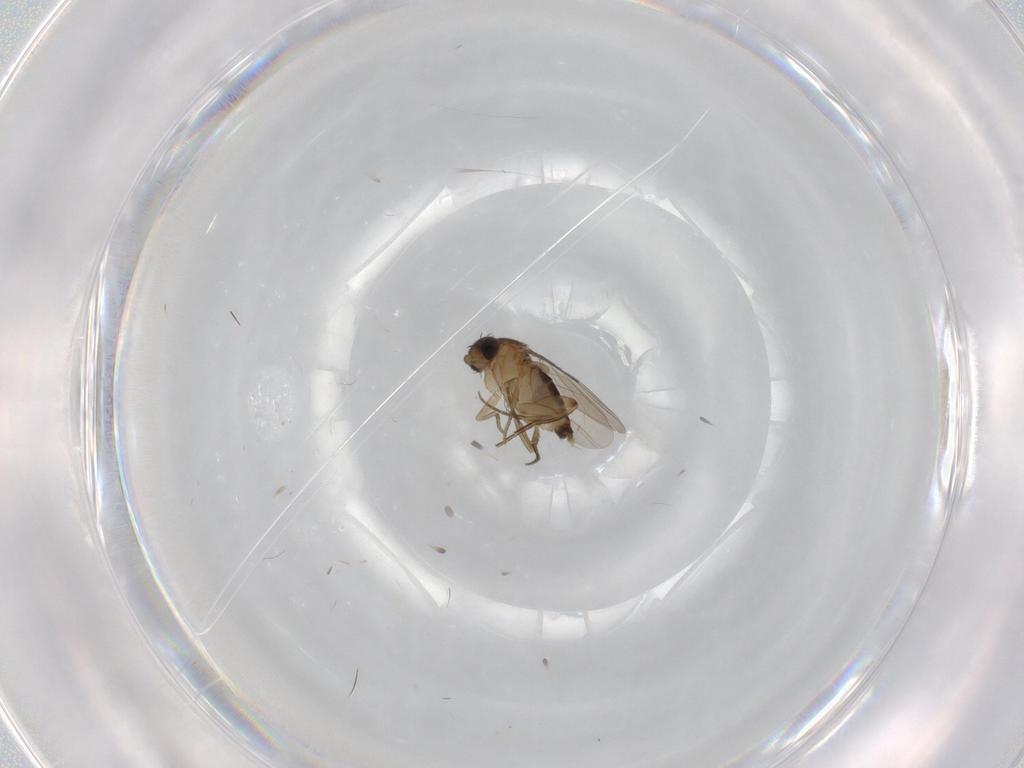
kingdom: Animalia
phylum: Arthropoda
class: Insecta
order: Diptera
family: Phoridae
